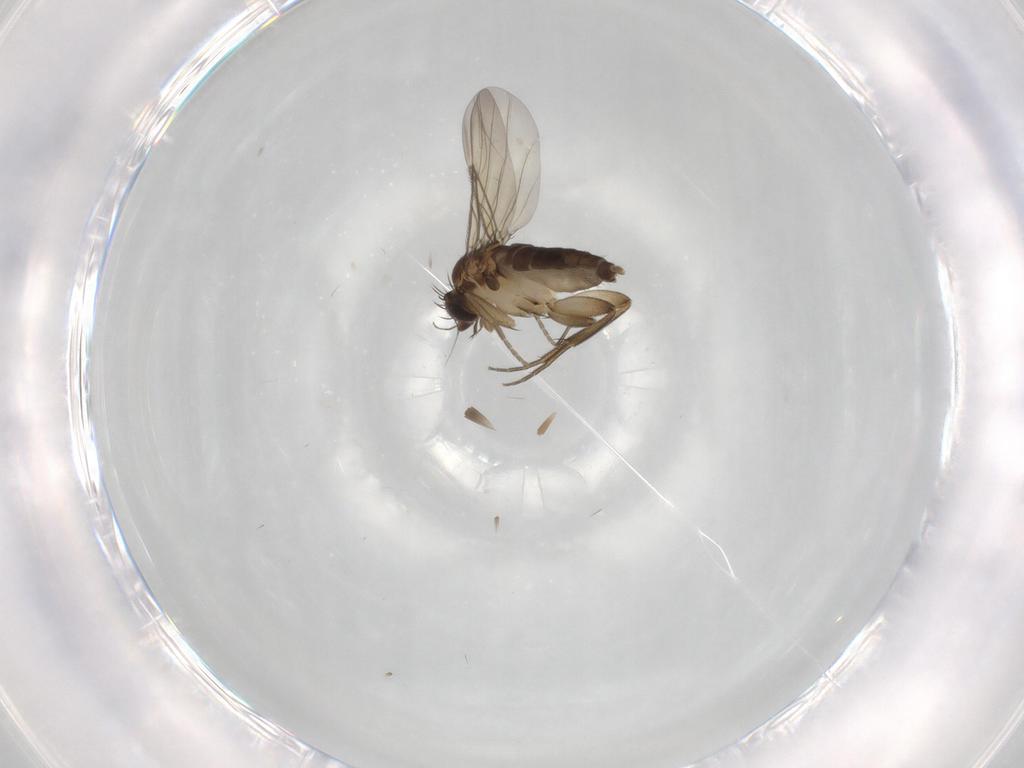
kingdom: Animalia
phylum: Arthropoda
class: Insecta
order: Diptera
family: Phoridae
